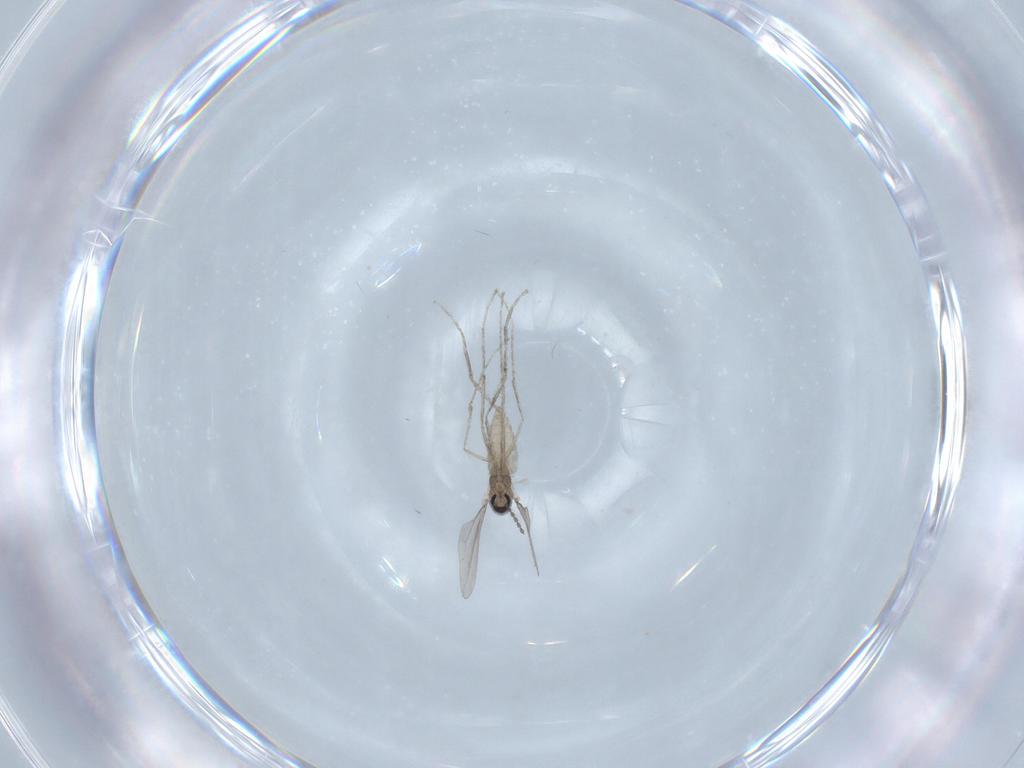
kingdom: Animalia
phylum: Arthropoda
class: Insecta
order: Diptera
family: Cecidomyiidae
